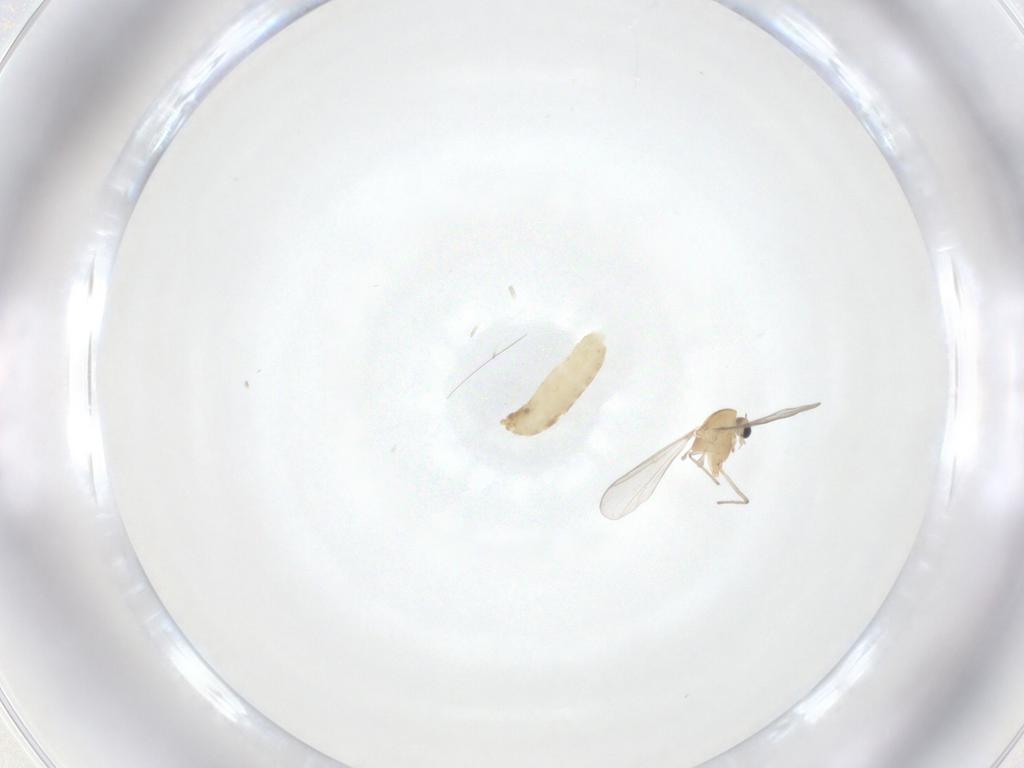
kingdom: Animalia
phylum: Arthropoda
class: Insecta
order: Diptera
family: Chironomidae
